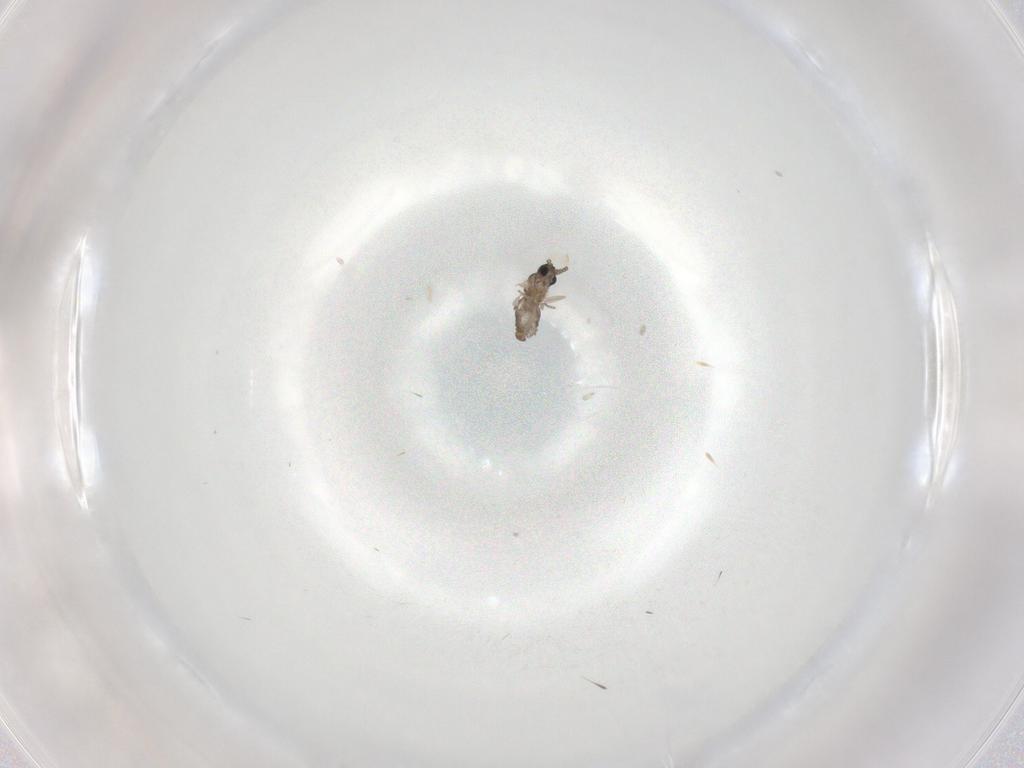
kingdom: Animalia
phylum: Arthropoda
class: Insecta
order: Diptera
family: Cecidomyiidae
